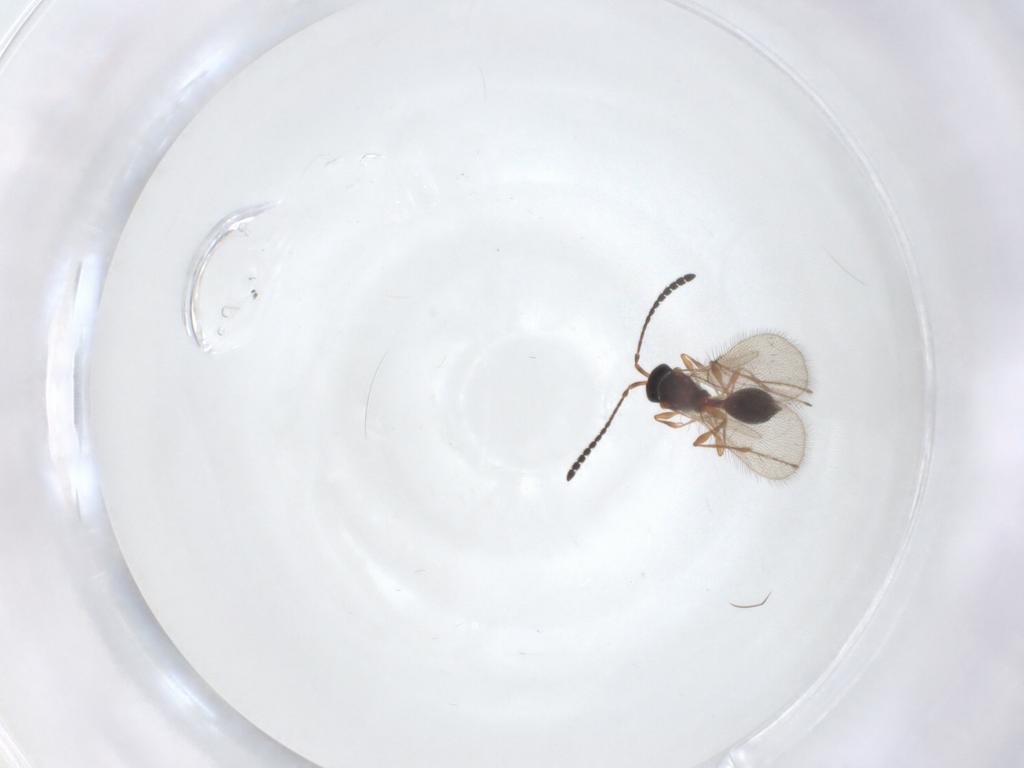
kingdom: Animalia
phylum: Arthropoda
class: Insecta
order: Hymenoptera
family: Diapriidae
